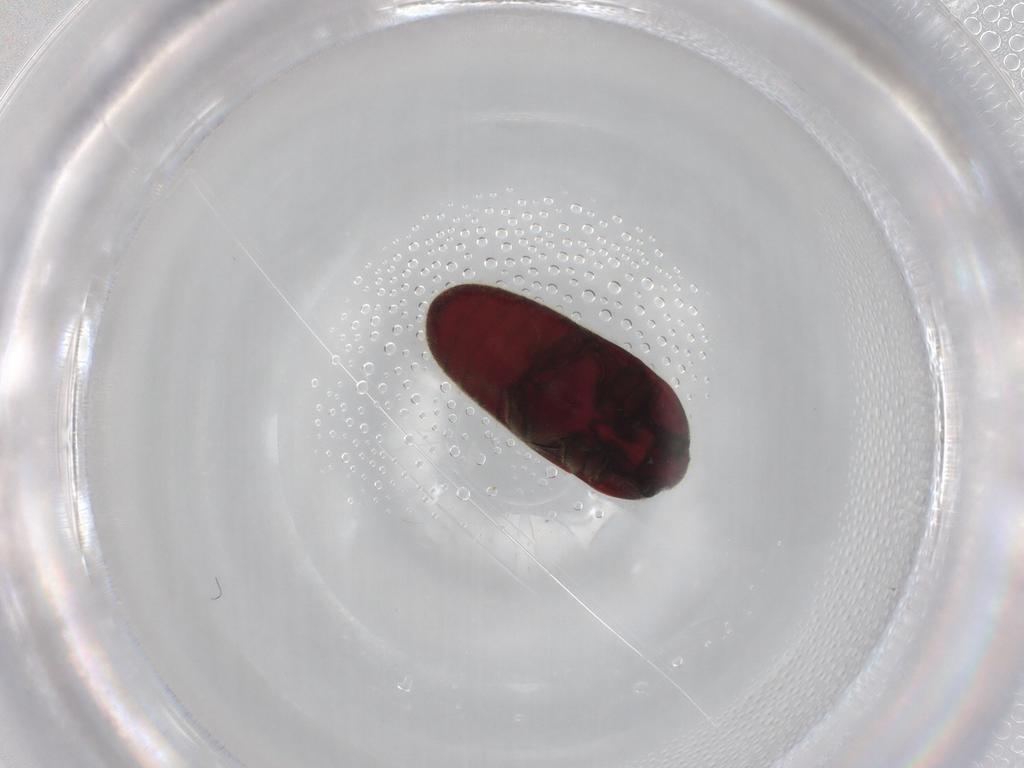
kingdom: Animalia
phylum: Arthropoda
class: Insecta
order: Coleoptera
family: Throscidae
